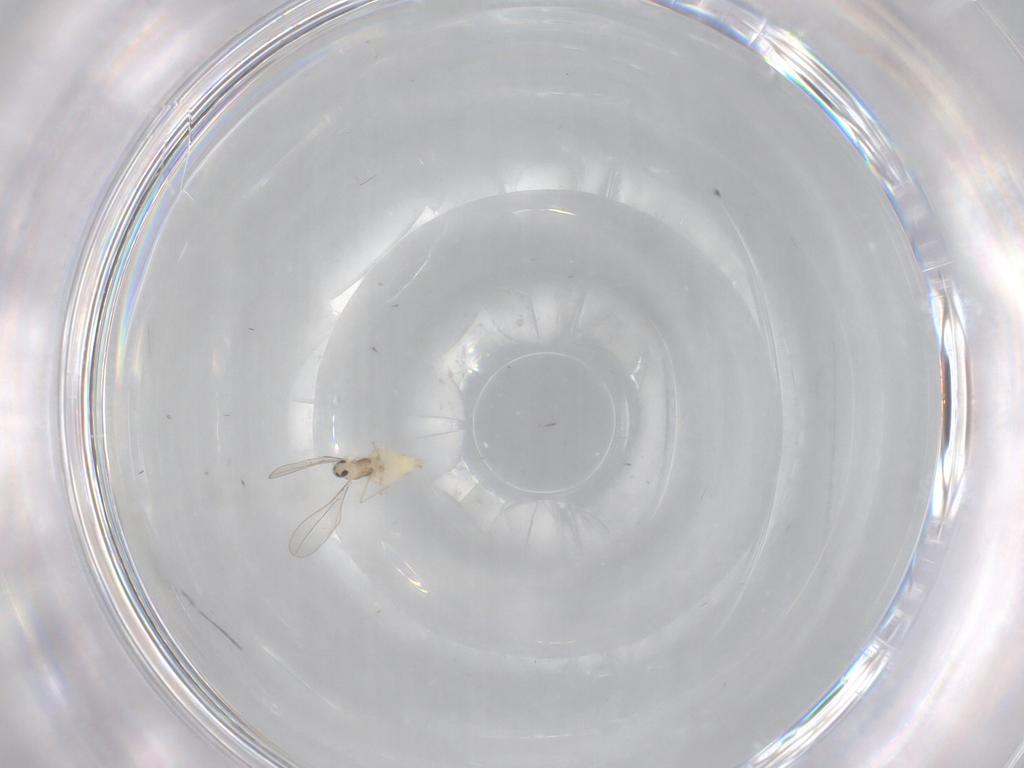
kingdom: Animalia
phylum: Arthropoda
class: Insecta
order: Diptera
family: Cecidomyiidae
